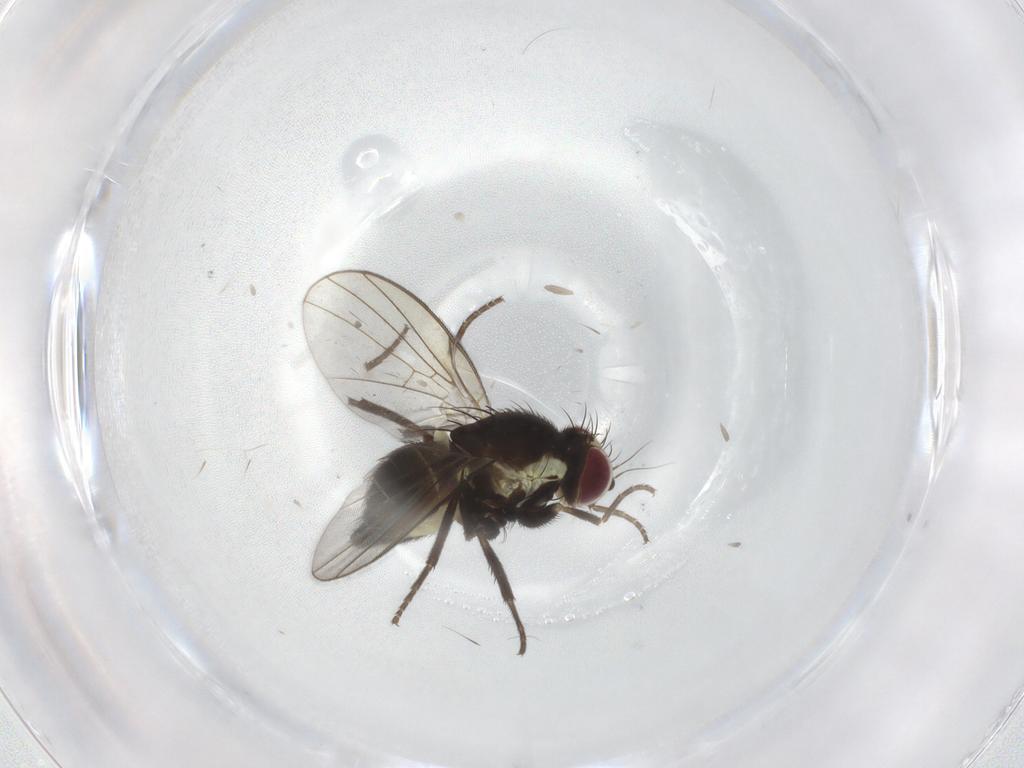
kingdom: Animalia
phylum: Arthropoda
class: Insecta
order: Diptera
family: Agromyzidae
